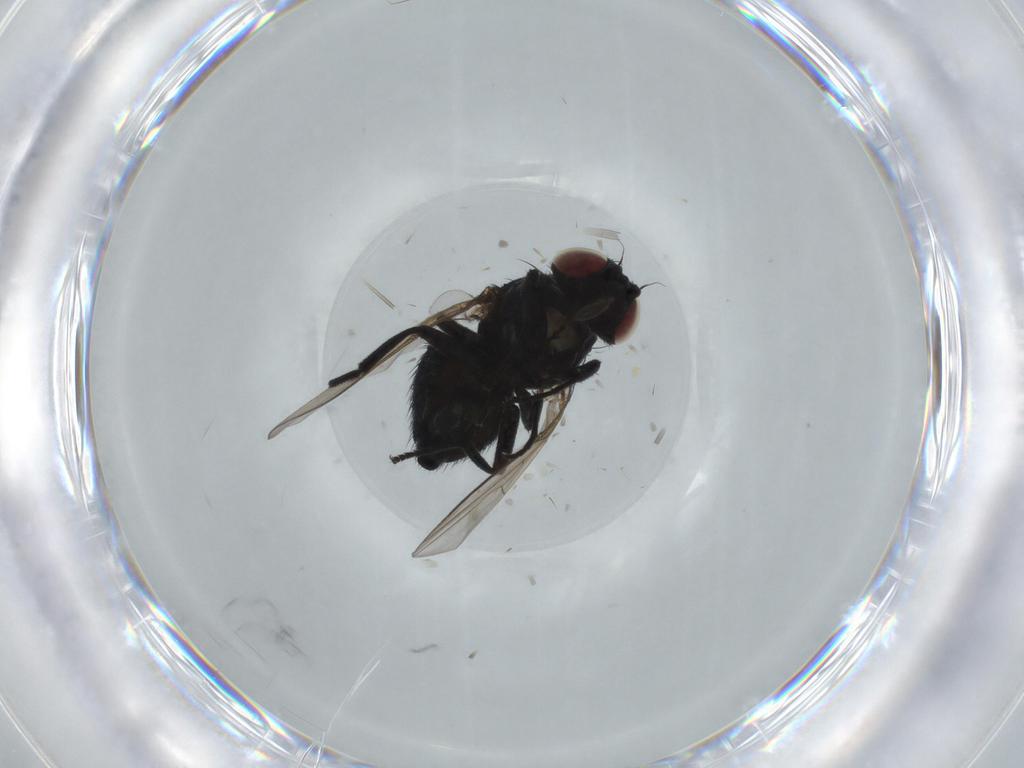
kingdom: Animalia
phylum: Arthropoda
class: Insecta
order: Diptera
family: Agromyzidae
